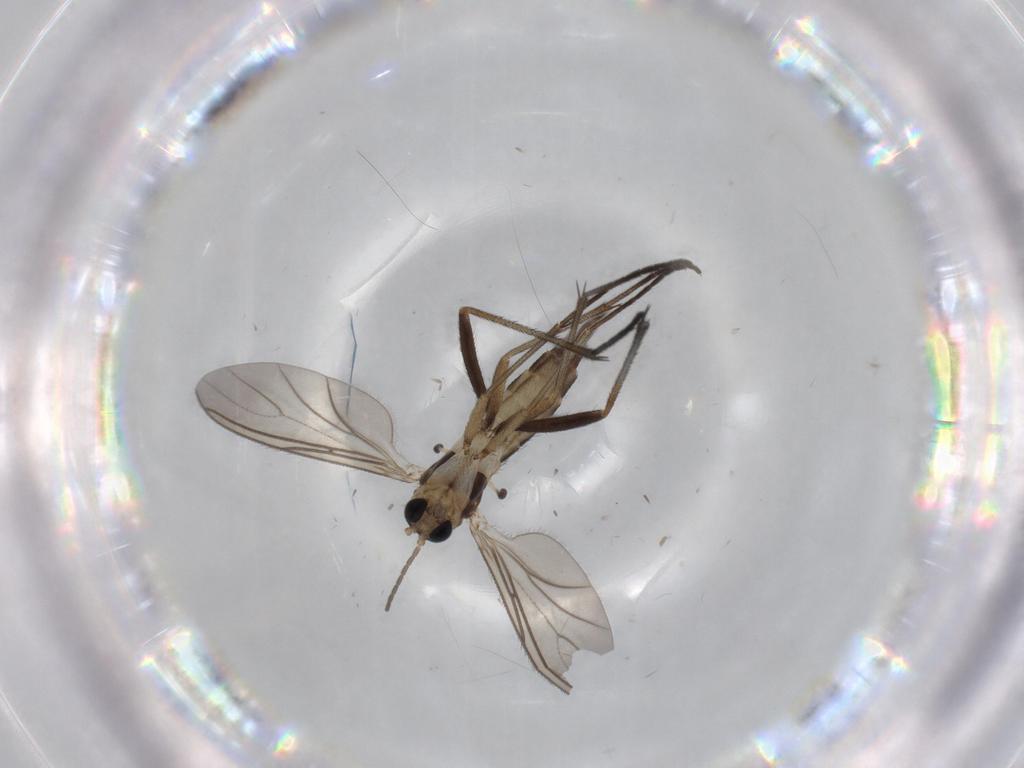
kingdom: Animalia
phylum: Arthropoda
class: Insecta
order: Diptera
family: Sciaridae
